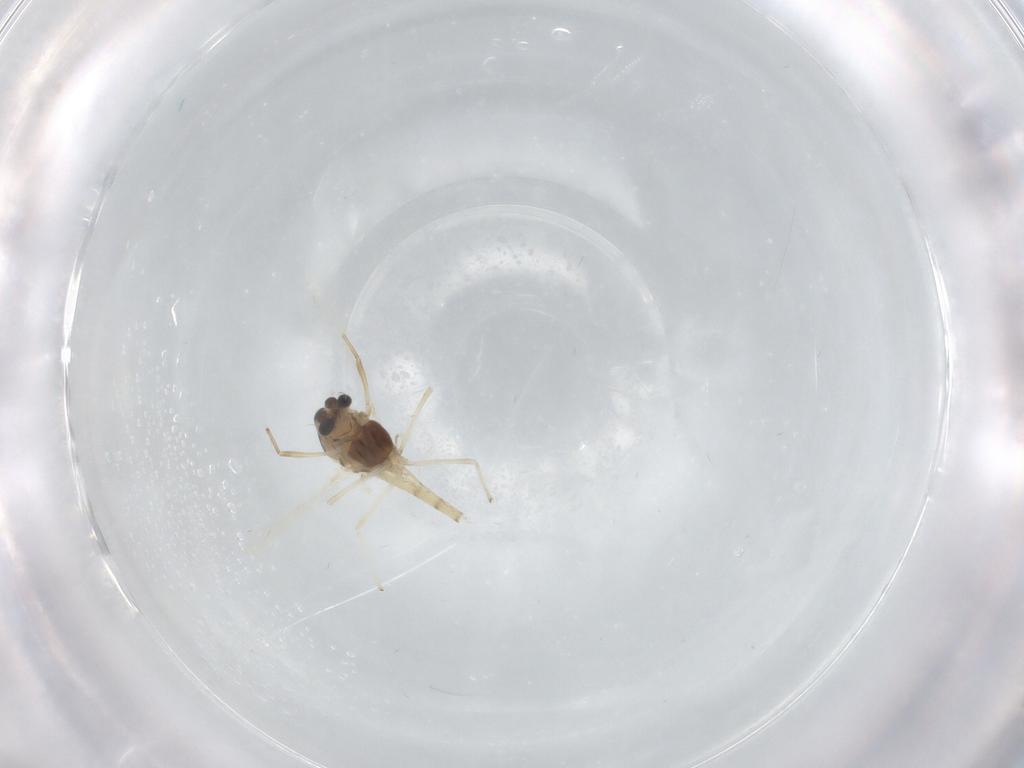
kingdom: Animalia
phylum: Arthropoda
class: Insecta
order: Diptera
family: Chironomidae
